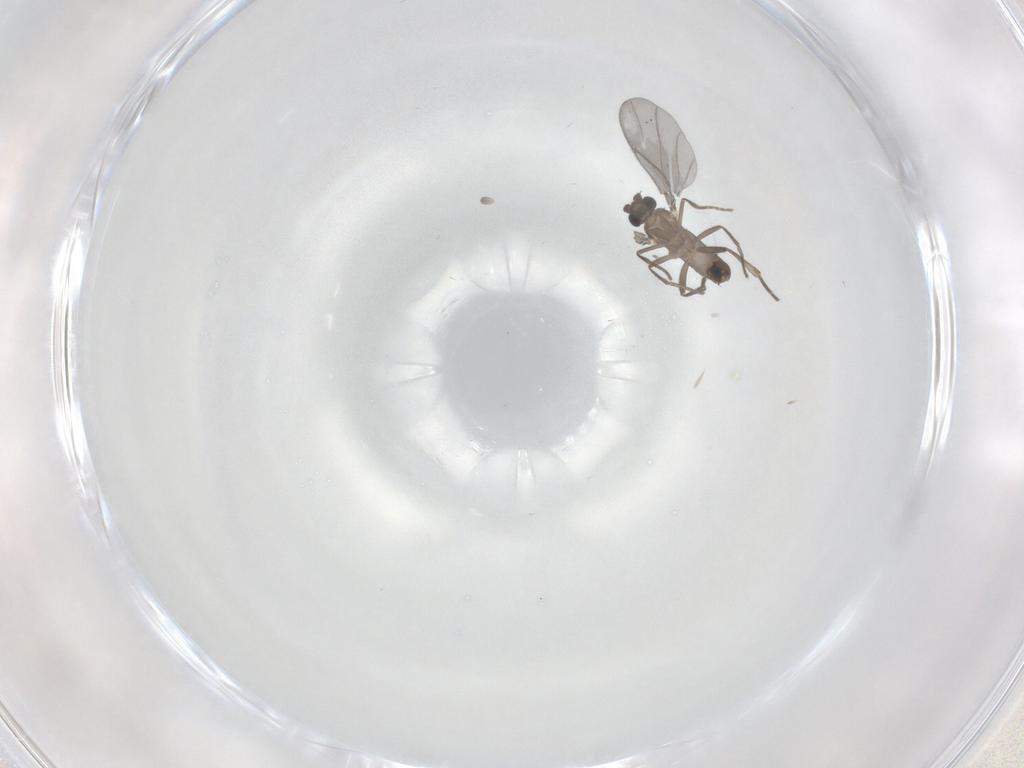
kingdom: Animalia
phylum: Arthropoda
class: Insecta
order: Diptera
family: Phoridae
